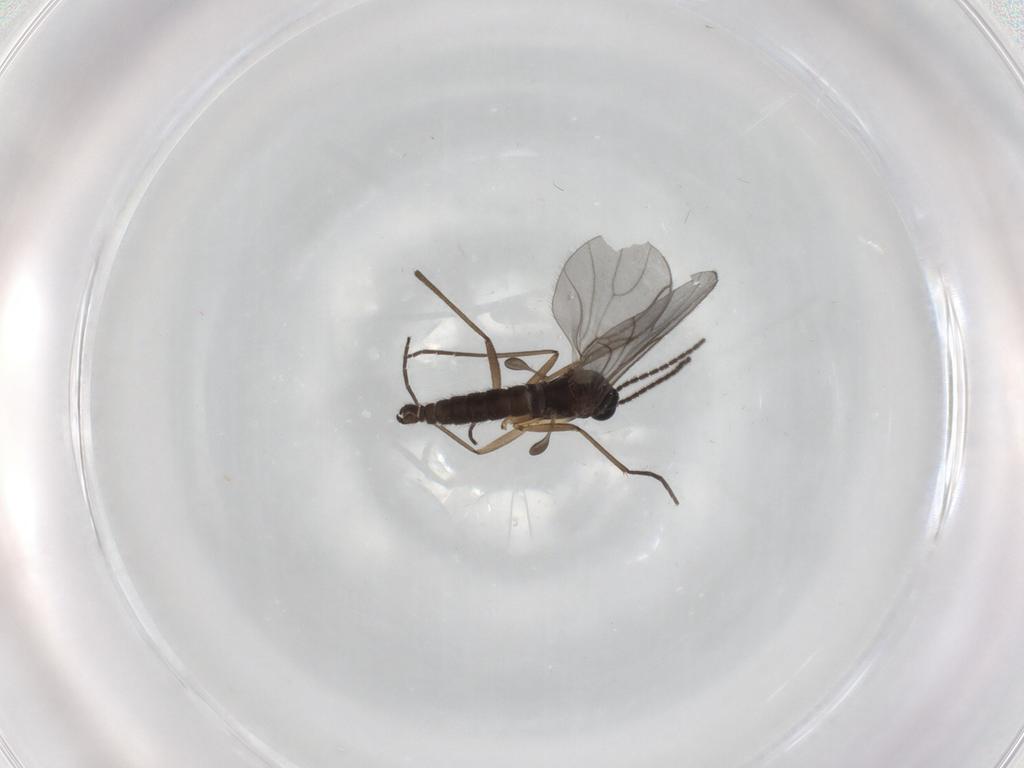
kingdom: Animalia
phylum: Arthropoda
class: Insecta
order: Diptera
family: Sciaridae
